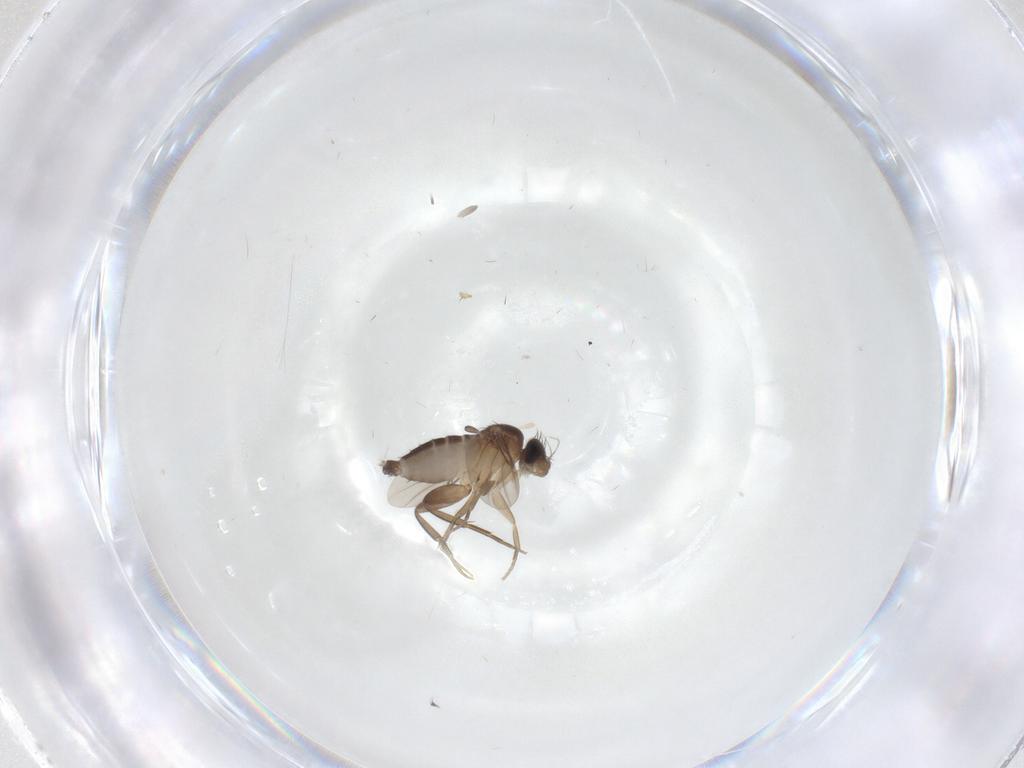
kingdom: Animalia
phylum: Arthropoda
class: Insecta
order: Diptera
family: Phoridae
